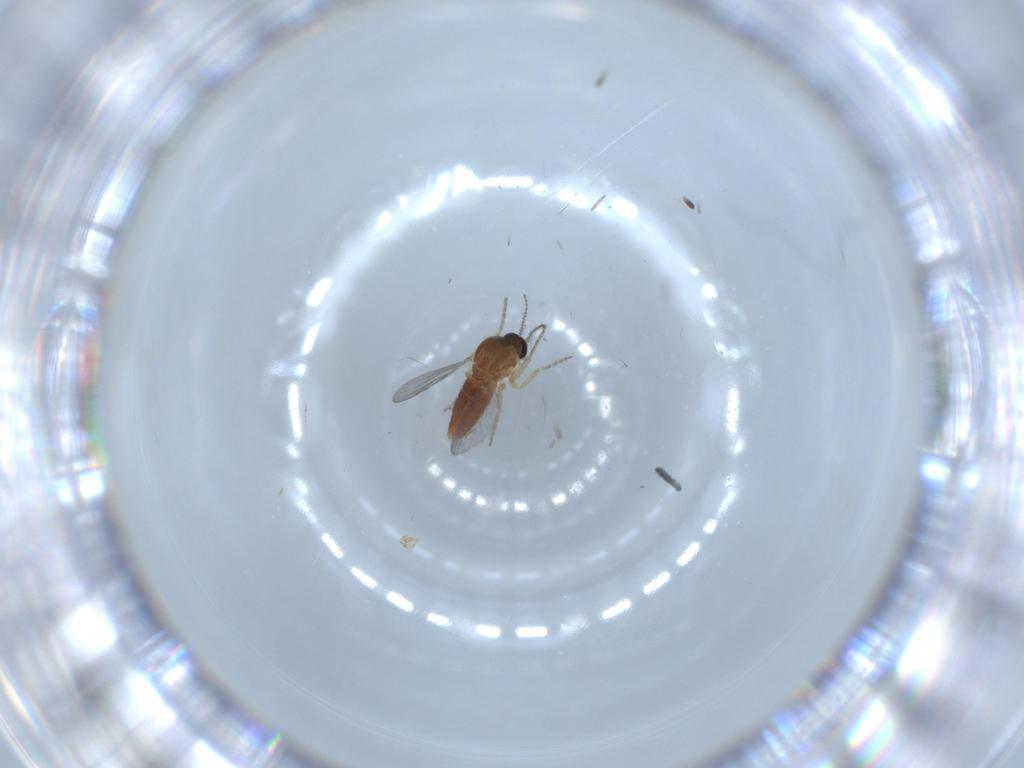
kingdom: Animalia
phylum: Arthropoda
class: Insecta
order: Diptera
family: Ceratopogonidae
